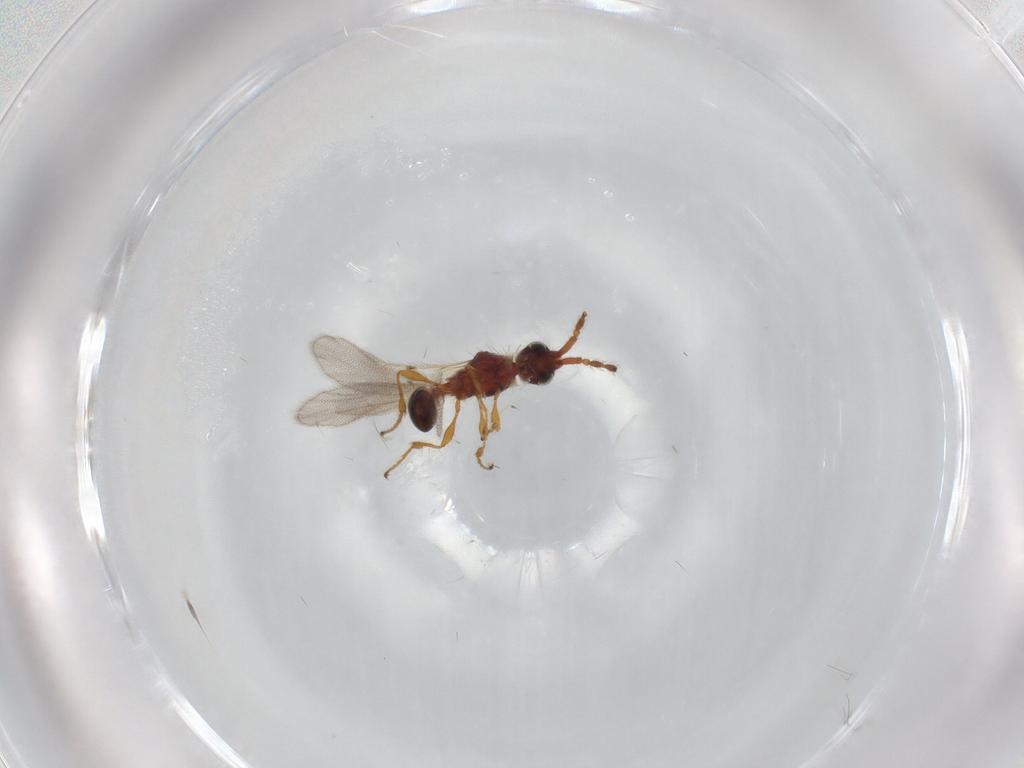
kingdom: Animalia
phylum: Arthropoda
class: Insecta
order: Hymenoptera
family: Diapriidae
